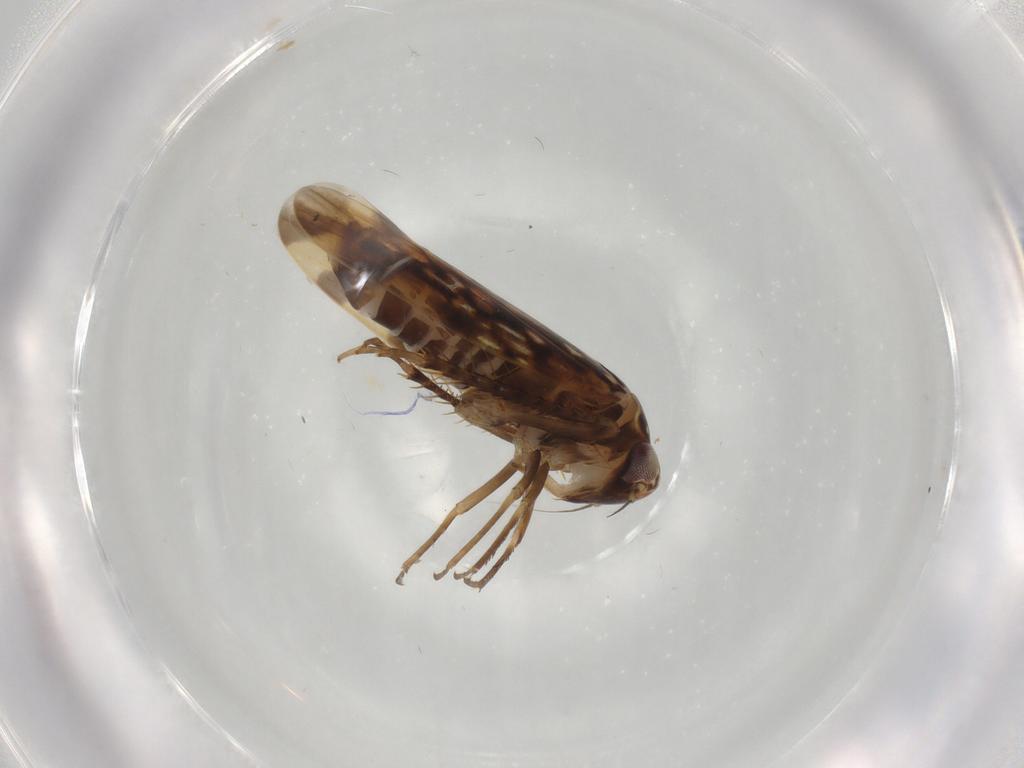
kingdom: Animalia
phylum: Arthropoda
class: Insecta
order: Hemiptera
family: Cicadellidae
